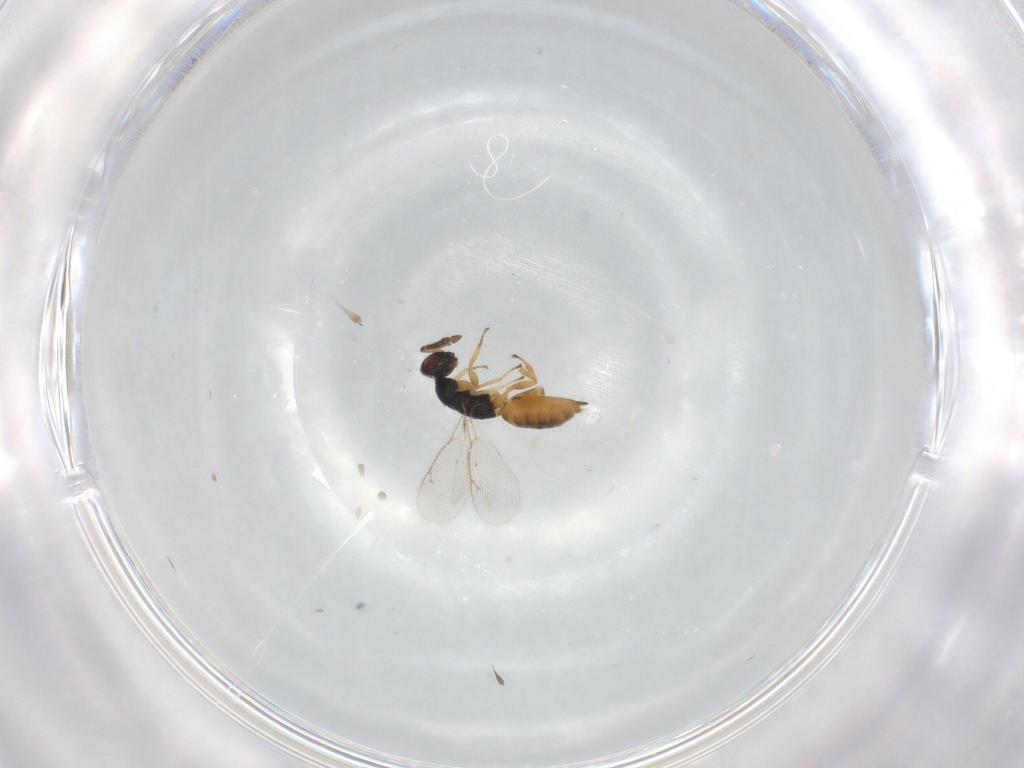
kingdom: Animalia
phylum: Arthropoda
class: Insecta
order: Hymenoptera
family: Eulophidae
